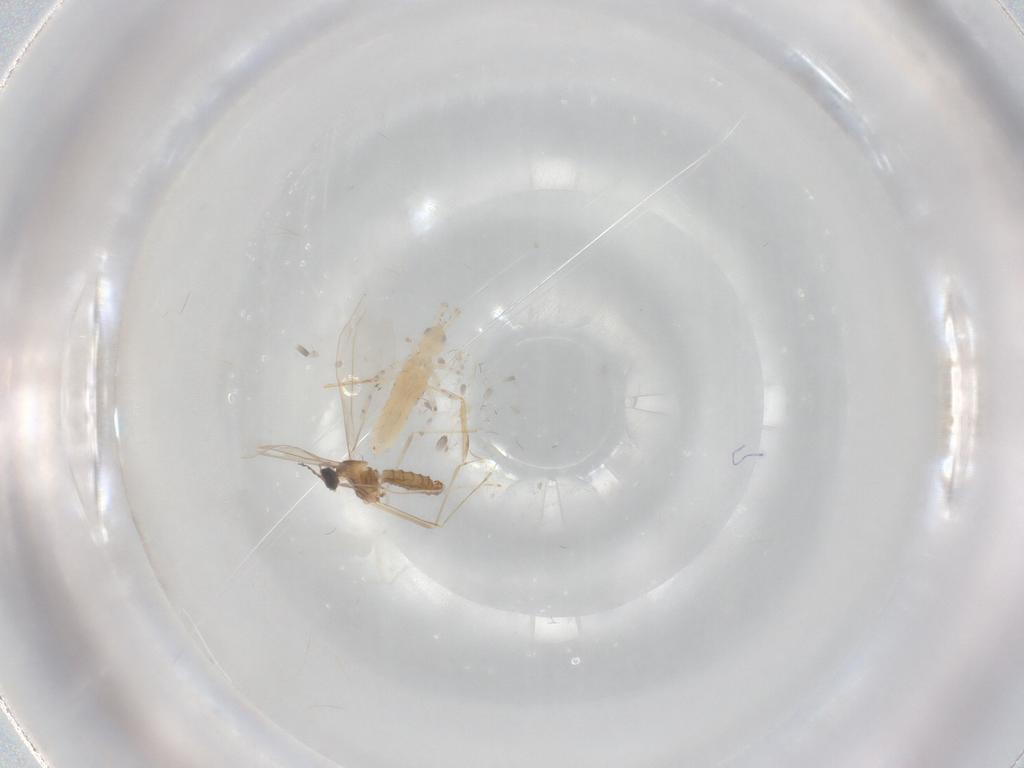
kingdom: Animalia
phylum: Arthropoda
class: Insecta
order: Diptera
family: Cecidomyiidae
